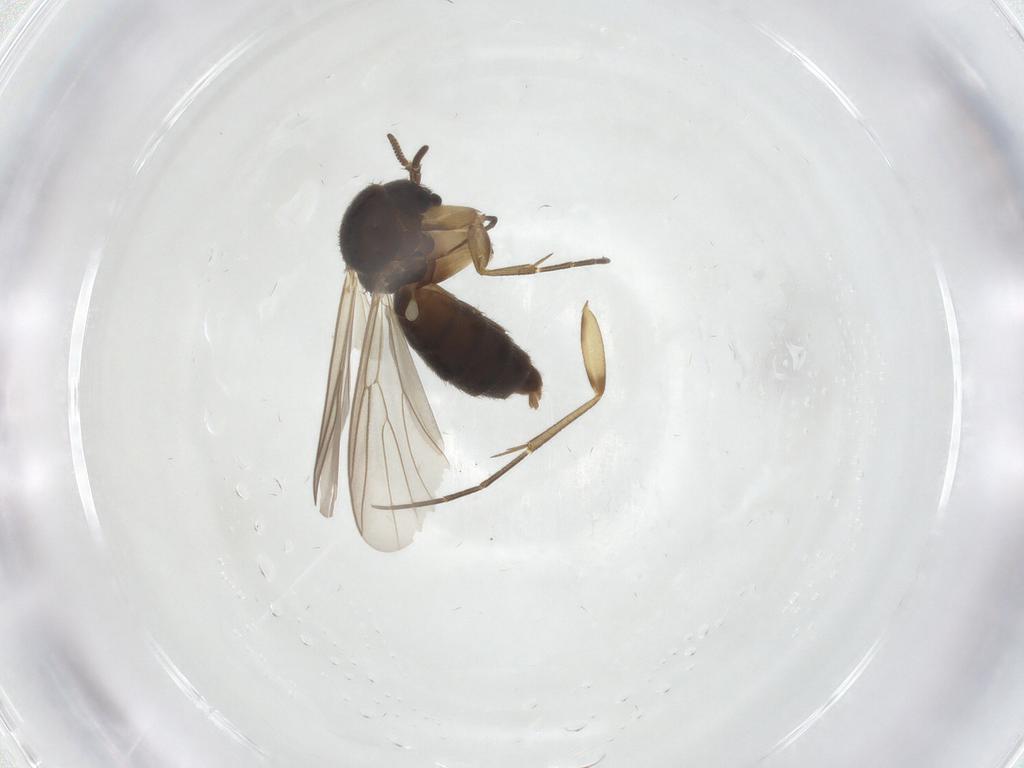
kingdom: Animalia
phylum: Arthropoda
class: Insecta
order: Diptera
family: Mycetophilidae
